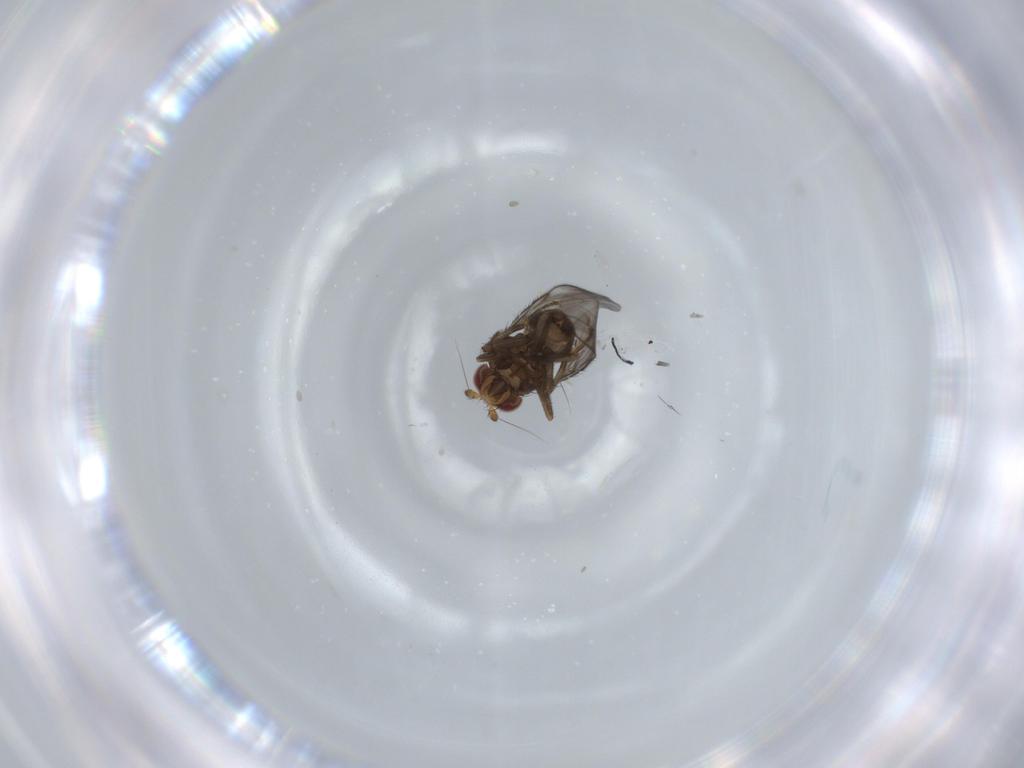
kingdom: Animalia
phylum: Arthropoda
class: Insecta
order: Diptera
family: Sphaeroceridae
